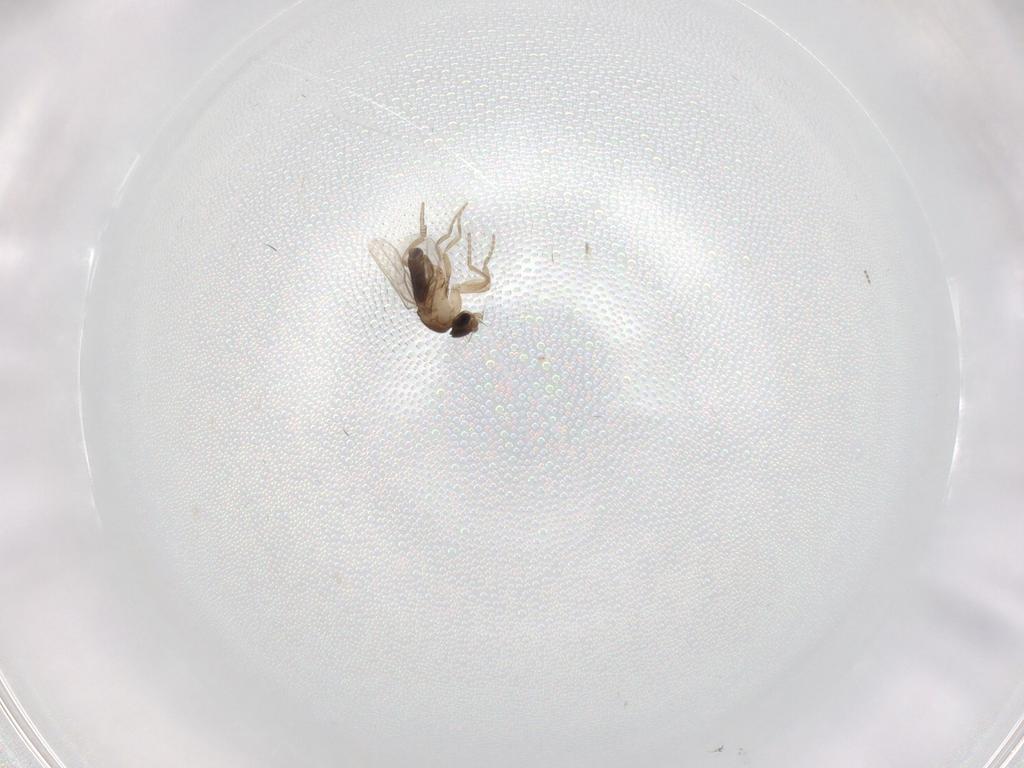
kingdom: Animalia
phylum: Arthropoda
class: Insecta
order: Diptera
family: Phoridae
